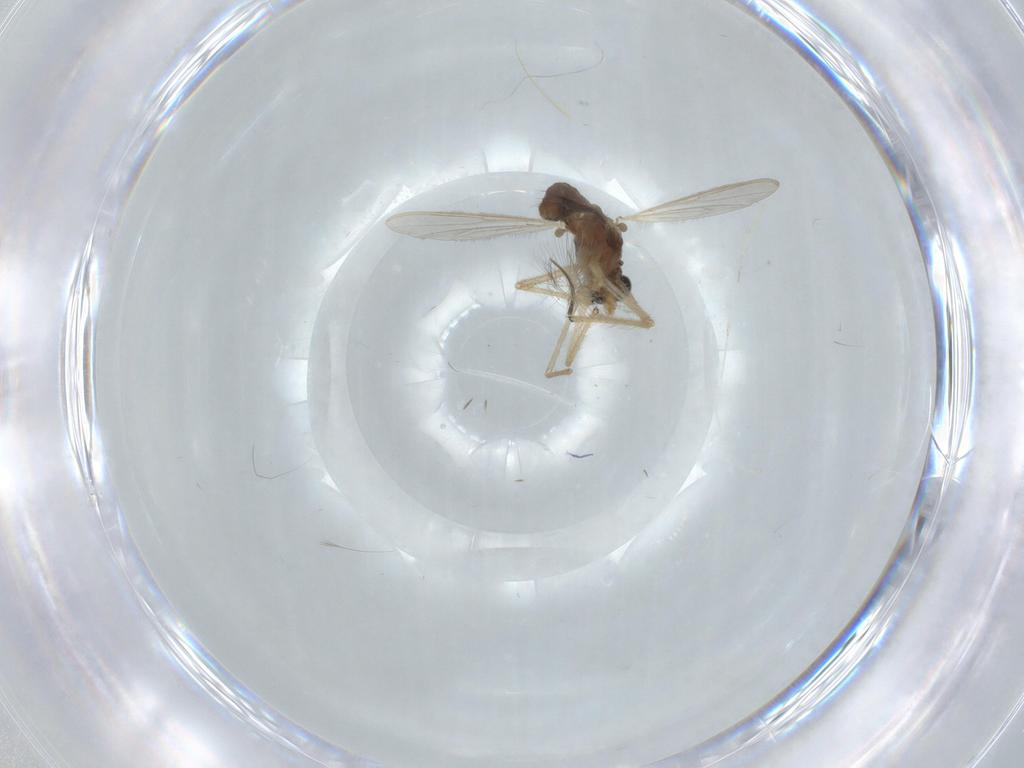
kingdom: Animalia
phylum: Arthropoda
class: Insecta
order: Diptera
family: Chironomidae
